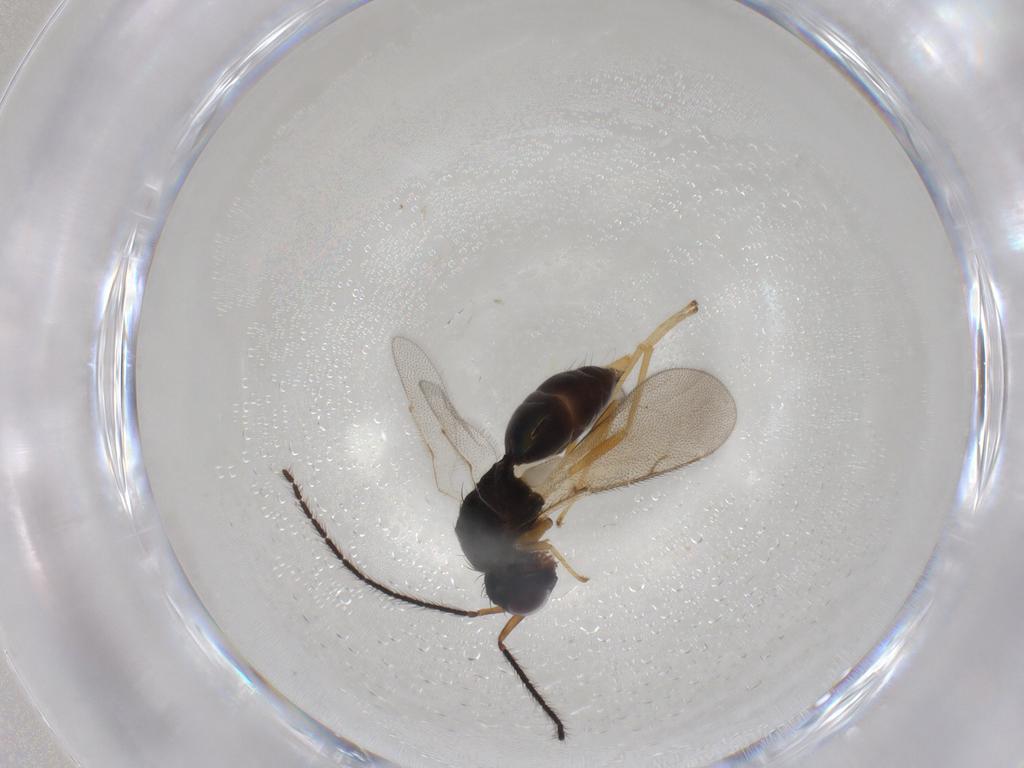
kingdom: Animalia
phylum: Arthropoda
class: Insecta
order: Hymenoptera
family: Diparidae
